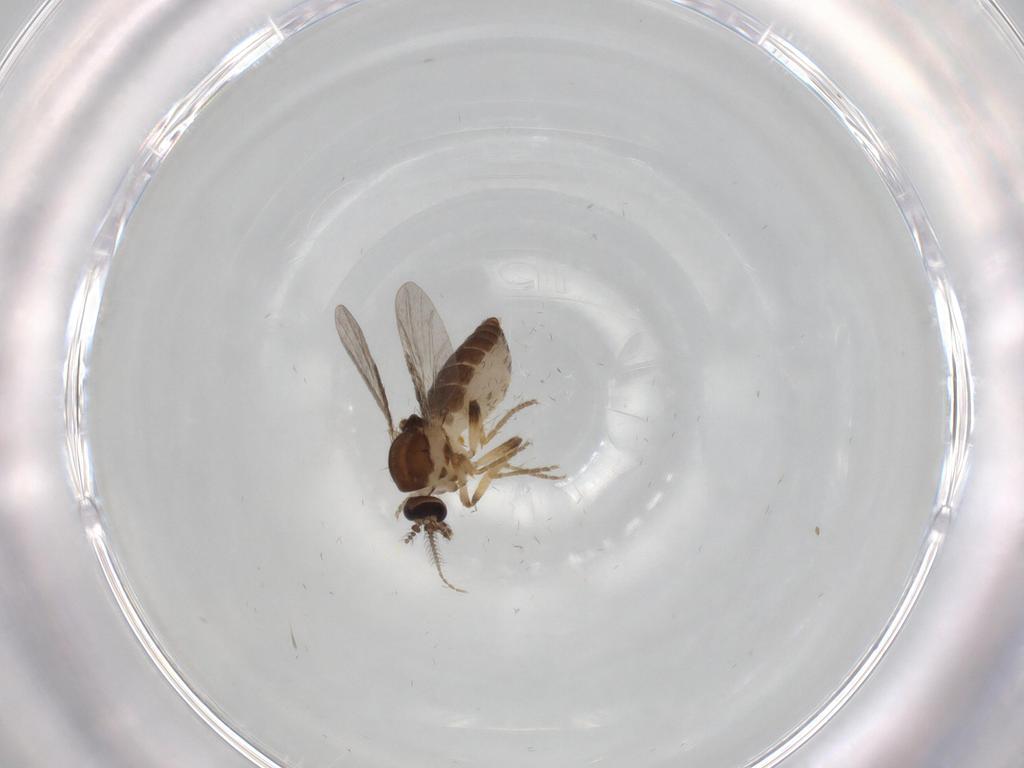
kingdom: Animalia
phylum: Arthropoda
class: Insecta
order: Diptera
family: Ceratopogonidae
